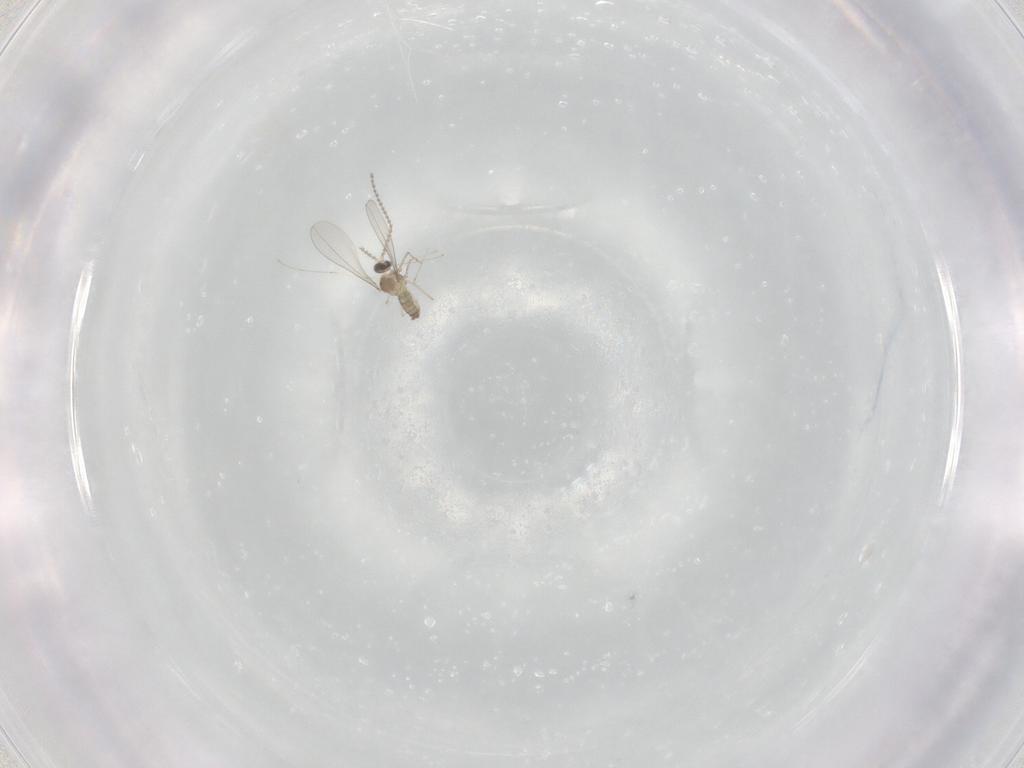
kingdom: Animalia
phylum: Arthropoda
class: Insecta
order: Diptera
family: Cecidomyiidae
